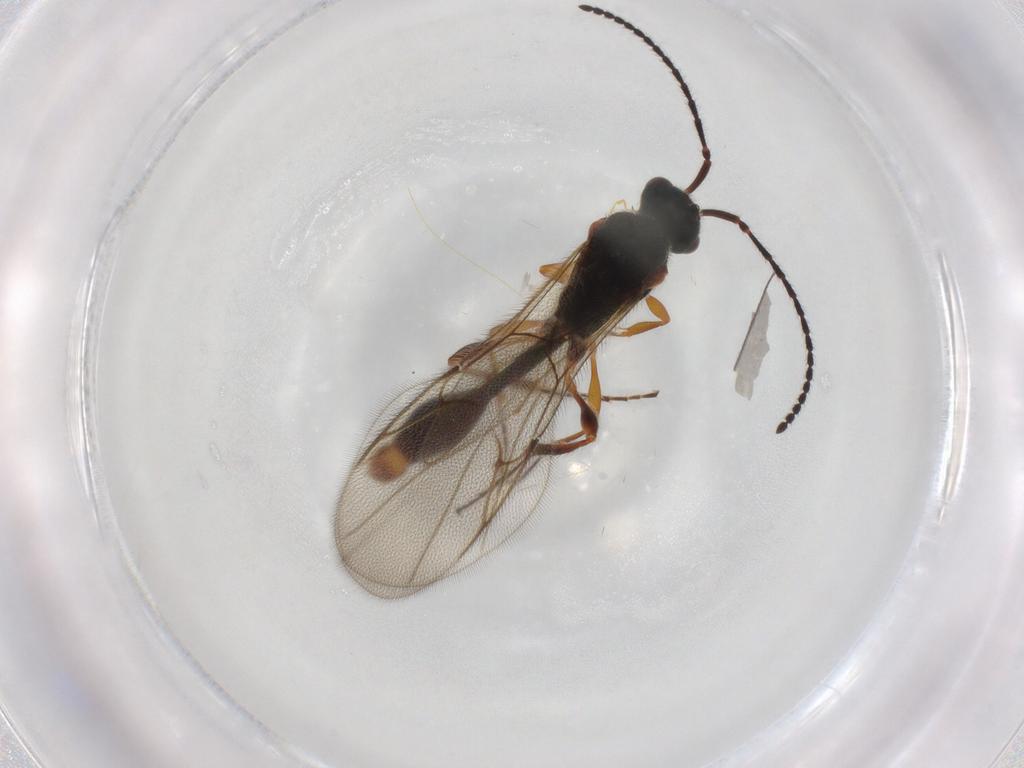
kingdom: Animalia
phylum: Arthropoda
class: Insecta
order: Hymenoptera
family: Diapriidae
